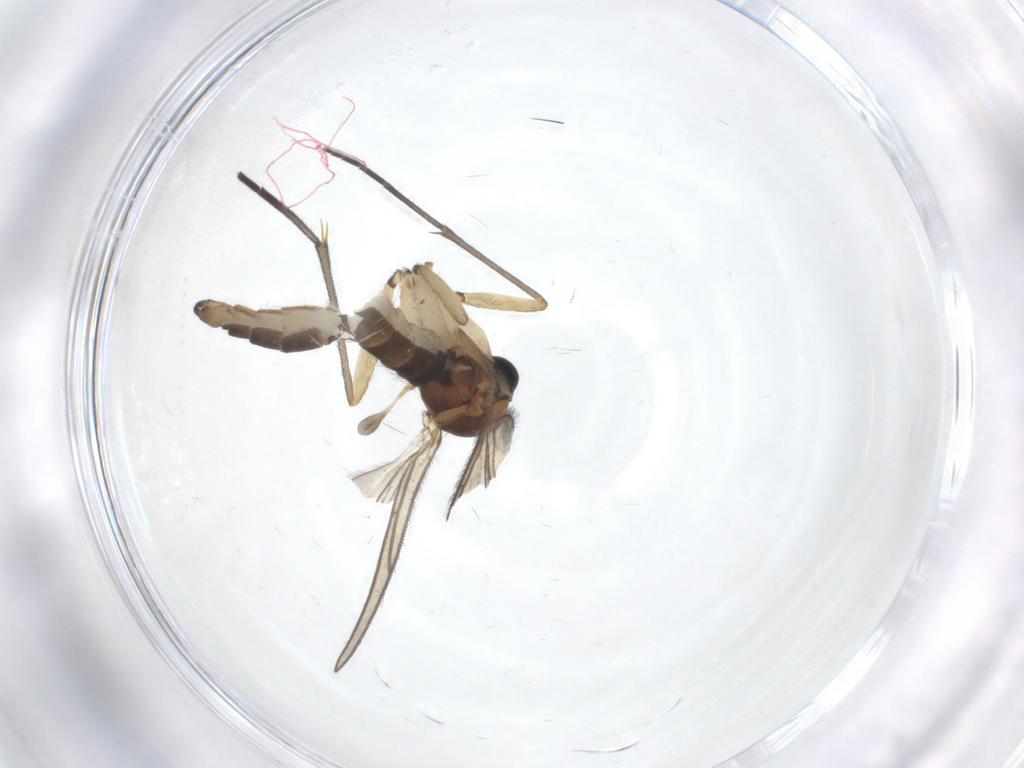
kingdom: Animalia
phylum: Arthropoda
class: Insecta
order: Diptera
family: Sciaridae
